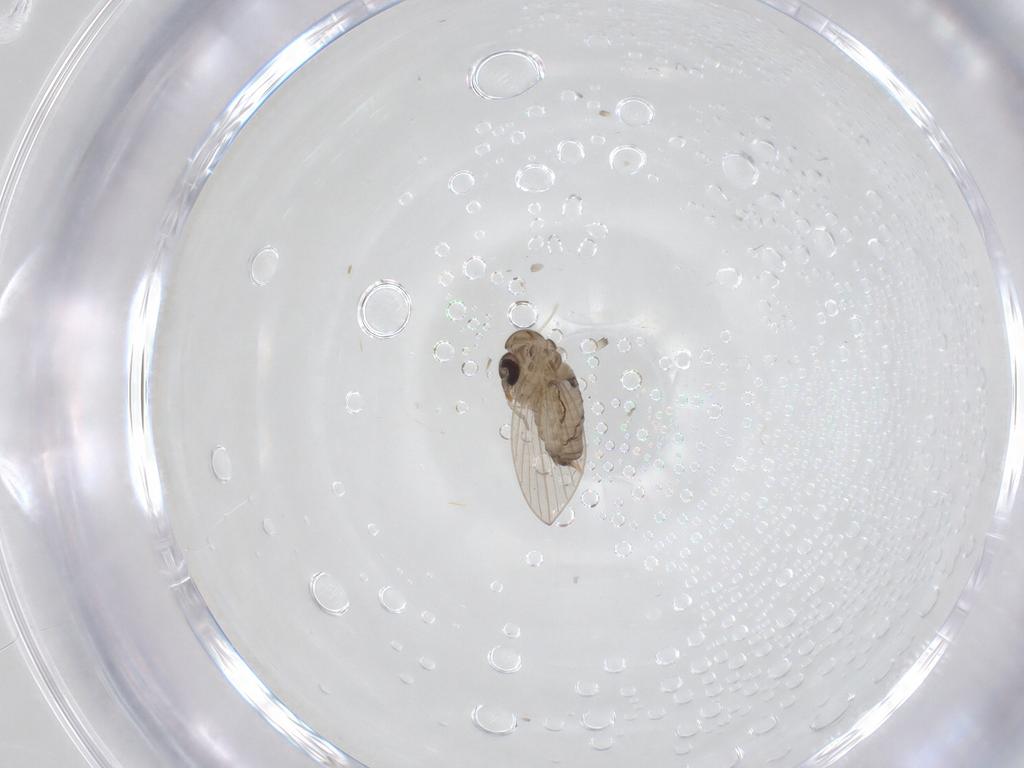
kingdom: Animalia
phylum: Arthropoda
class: Insecta
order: Diptera
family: Psychodidae
